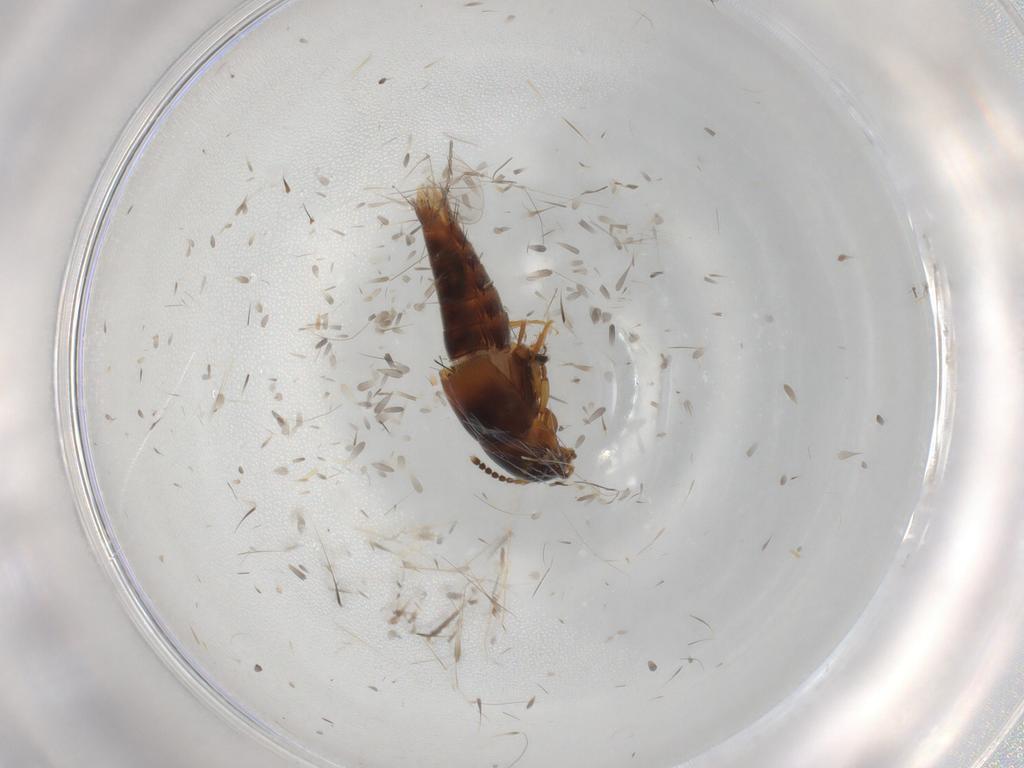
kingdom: Animalia
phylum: Arthropoda
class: Insecta
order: Coleoptera
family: Staphylinidae
